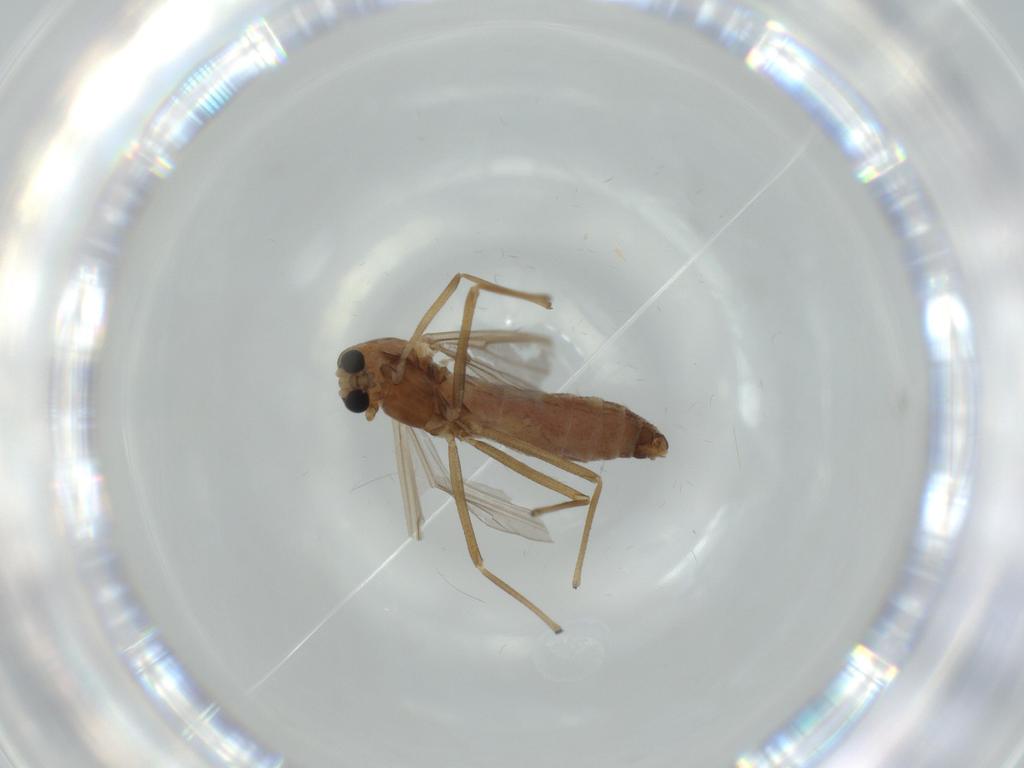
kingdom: Animalia
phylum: Arthropoda
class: Insecta
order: Diptera
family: Chironomidae
